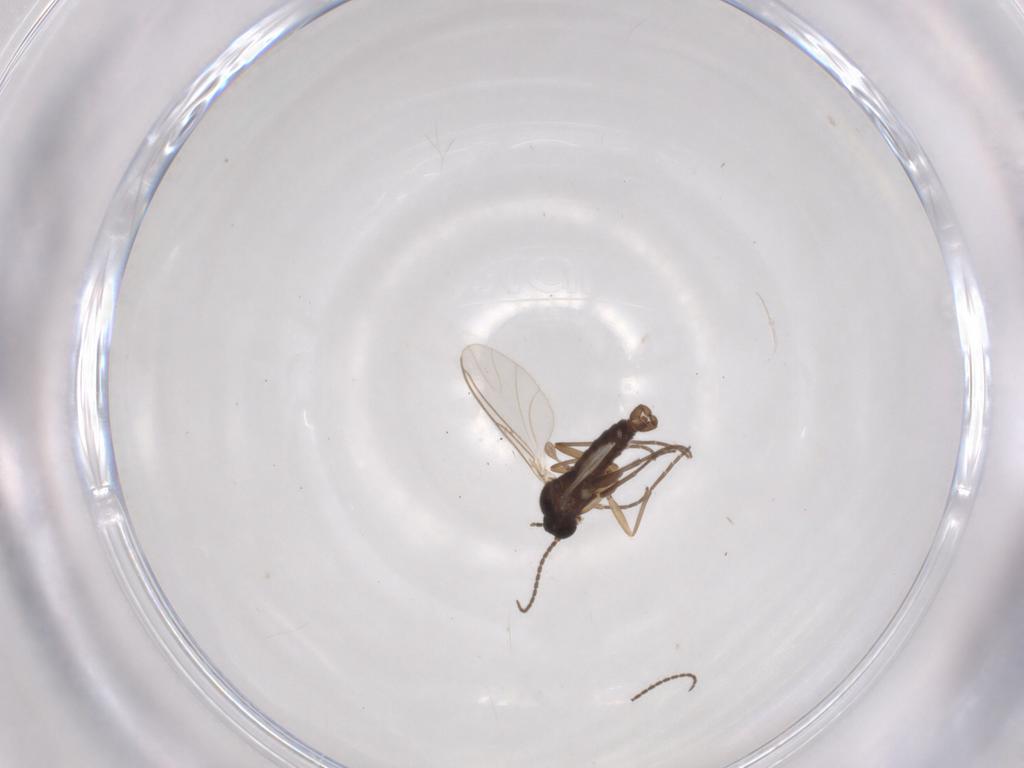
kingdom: Animalia
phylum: Arthropoda
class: Insecta
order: Diptera
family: Sciaridae
